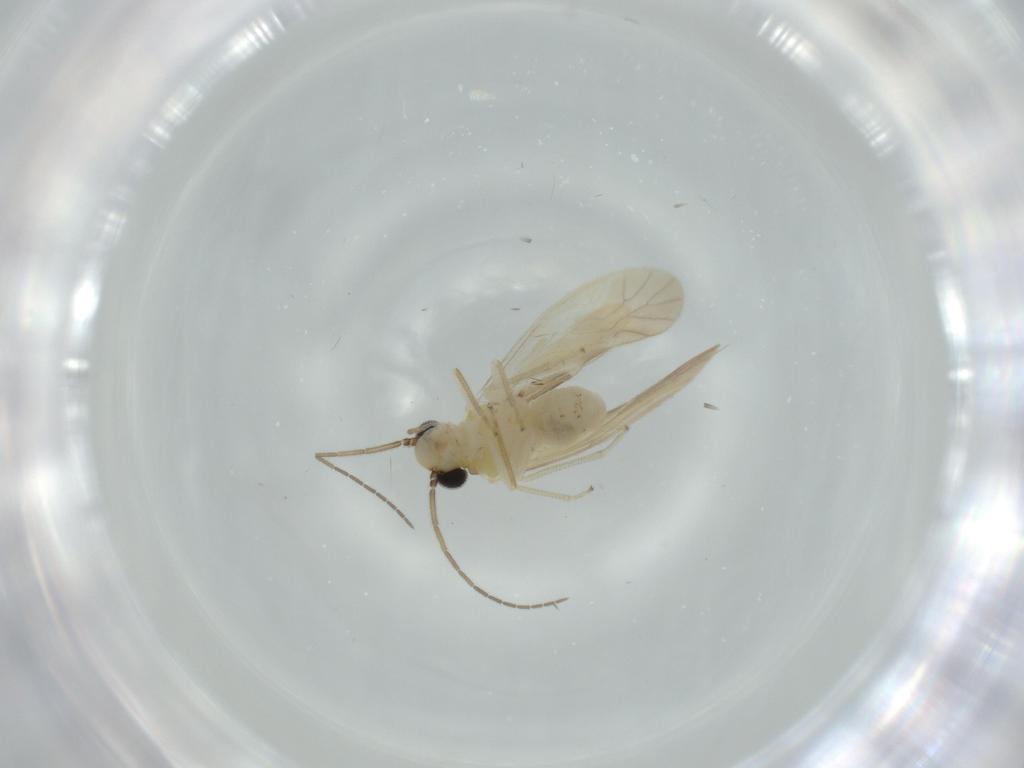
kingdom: Animalia
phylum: Arthropoda
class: Insecta
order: Psocodea
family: Caeciliusidae
